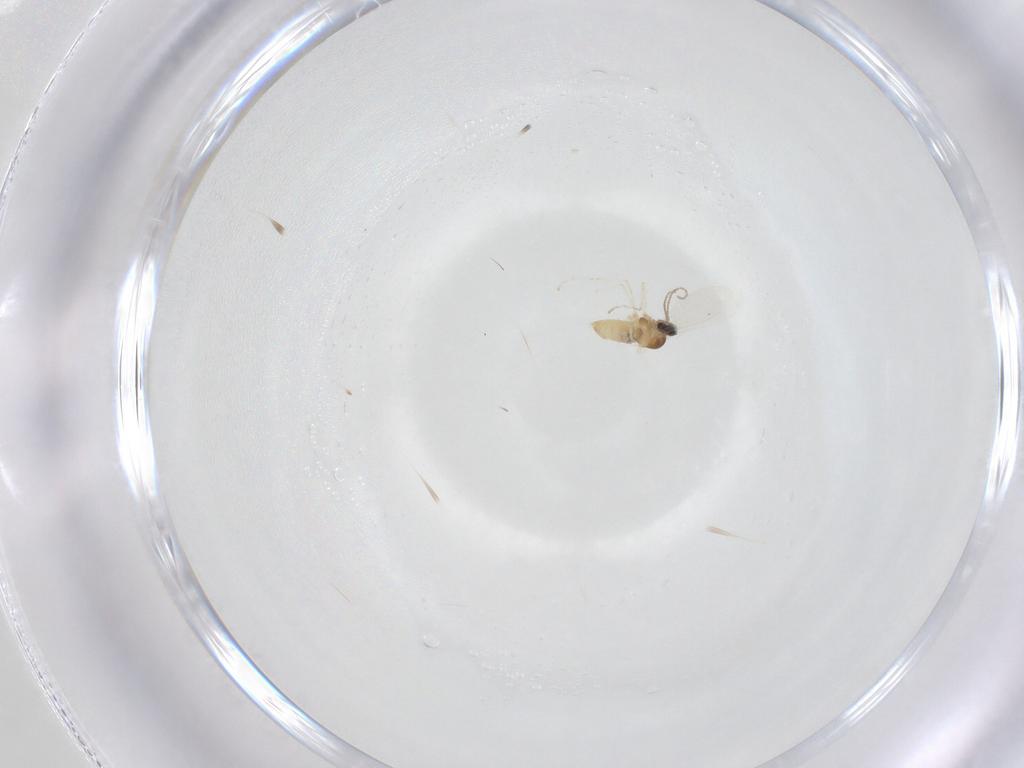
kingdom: Animalia
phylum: Arthropoda
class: Insecta
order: Diptera
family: Cecidomyiidae
